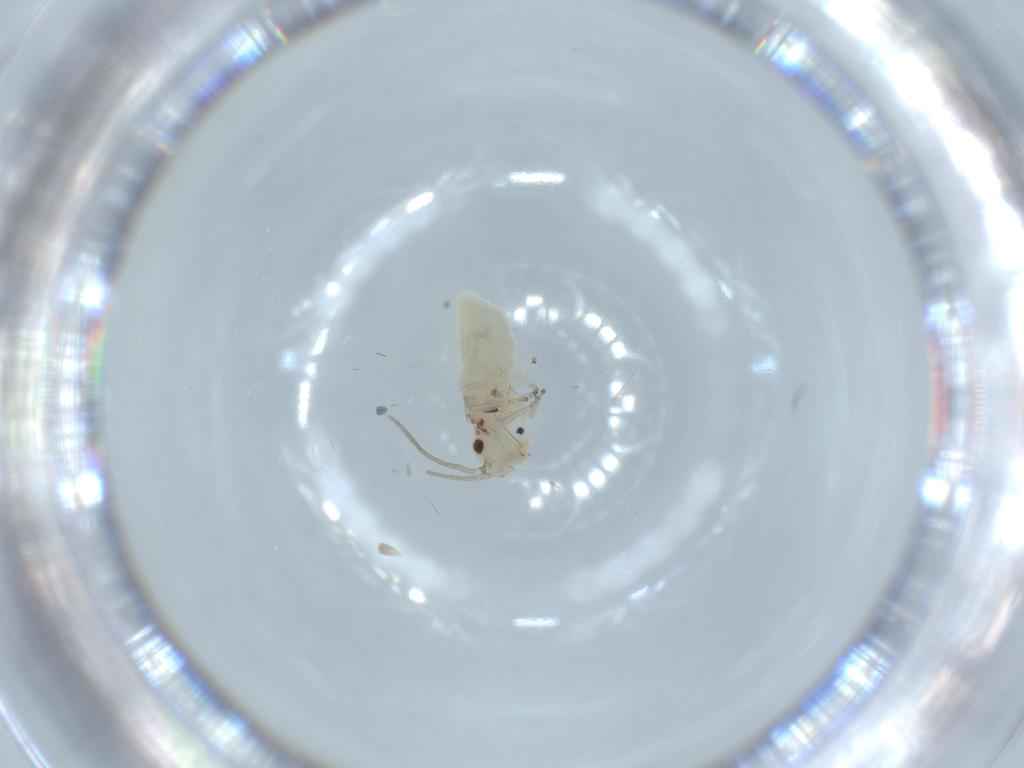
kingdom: Animalia
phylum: Arthropoda
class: Insecta
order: Psocodea
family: Caeciliusidae
